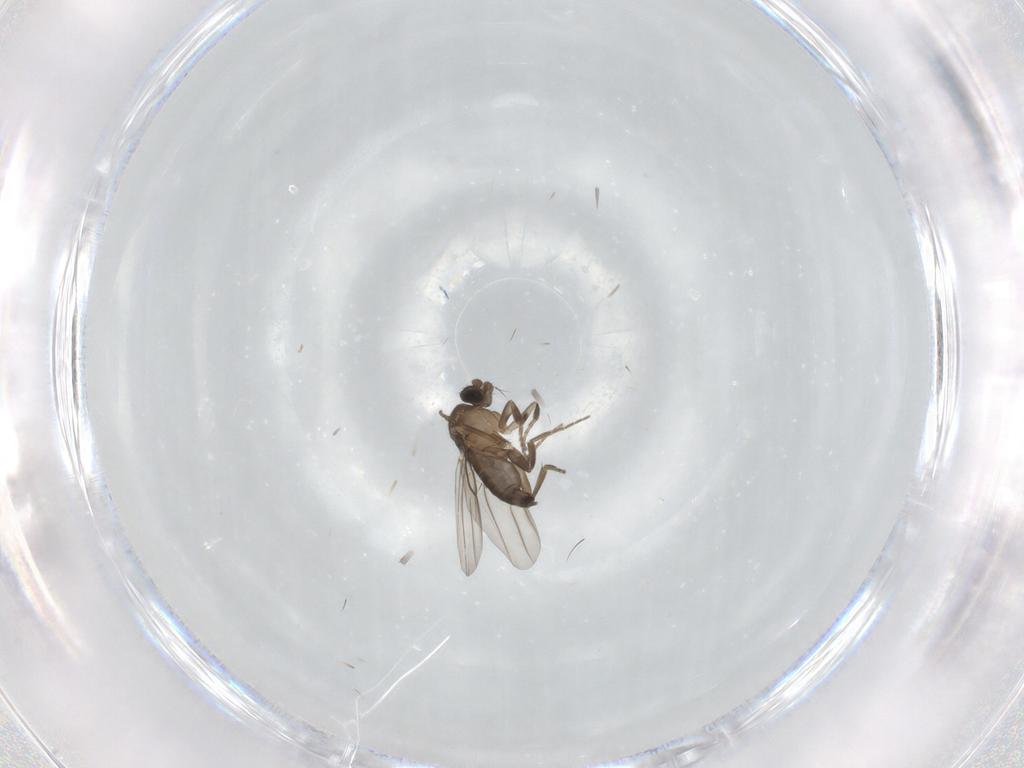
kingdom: Animalia
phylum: Arthropoda
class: Insecta
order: Diptera
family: Phoridae
